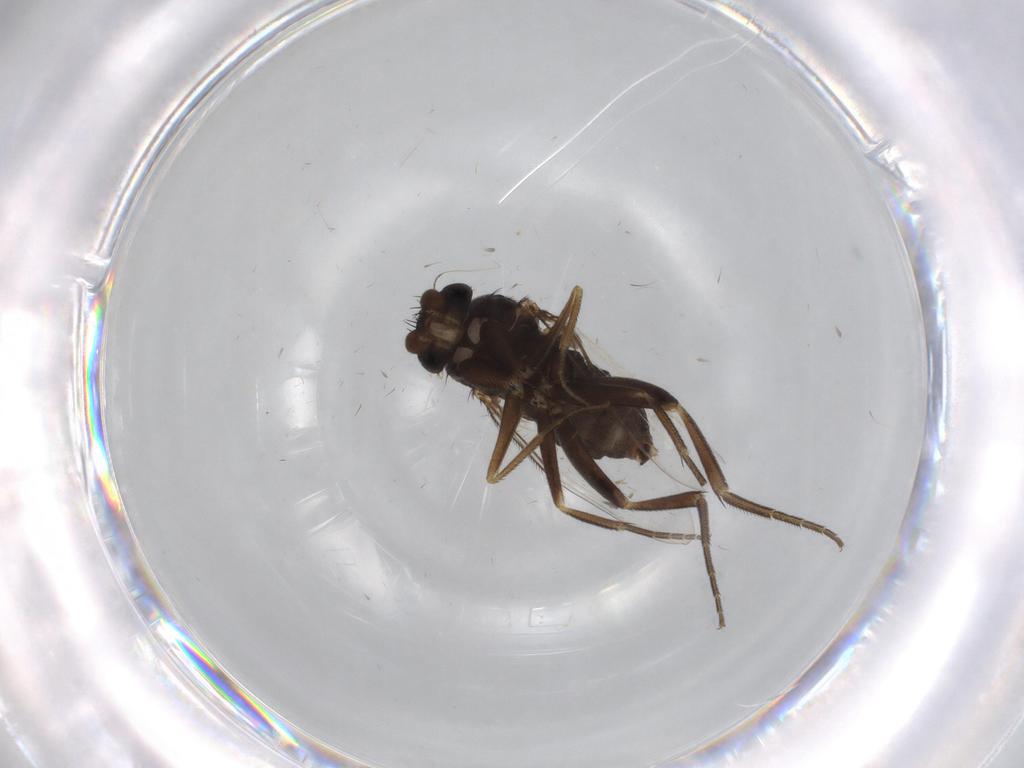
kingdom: Animalia
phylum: Arthropoda
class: Insecta
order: Diptera
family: Phoridae
